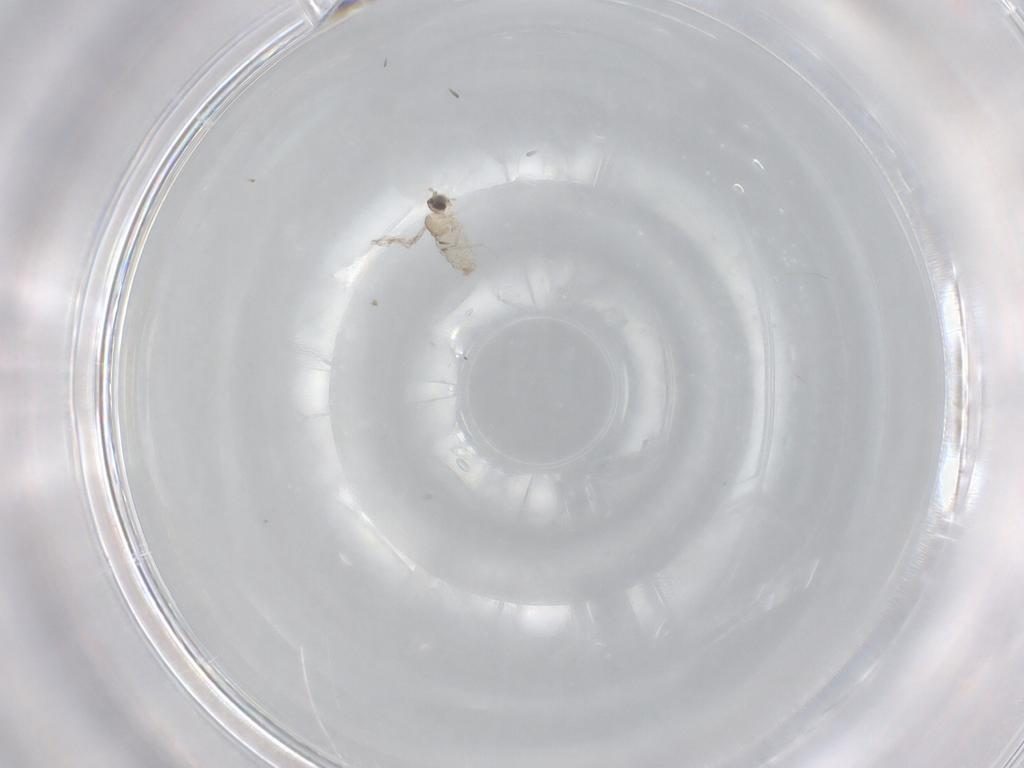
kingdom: Animalia
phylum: Arthropoda
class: Insecta
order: Diptera
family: Cecidomyiidae
